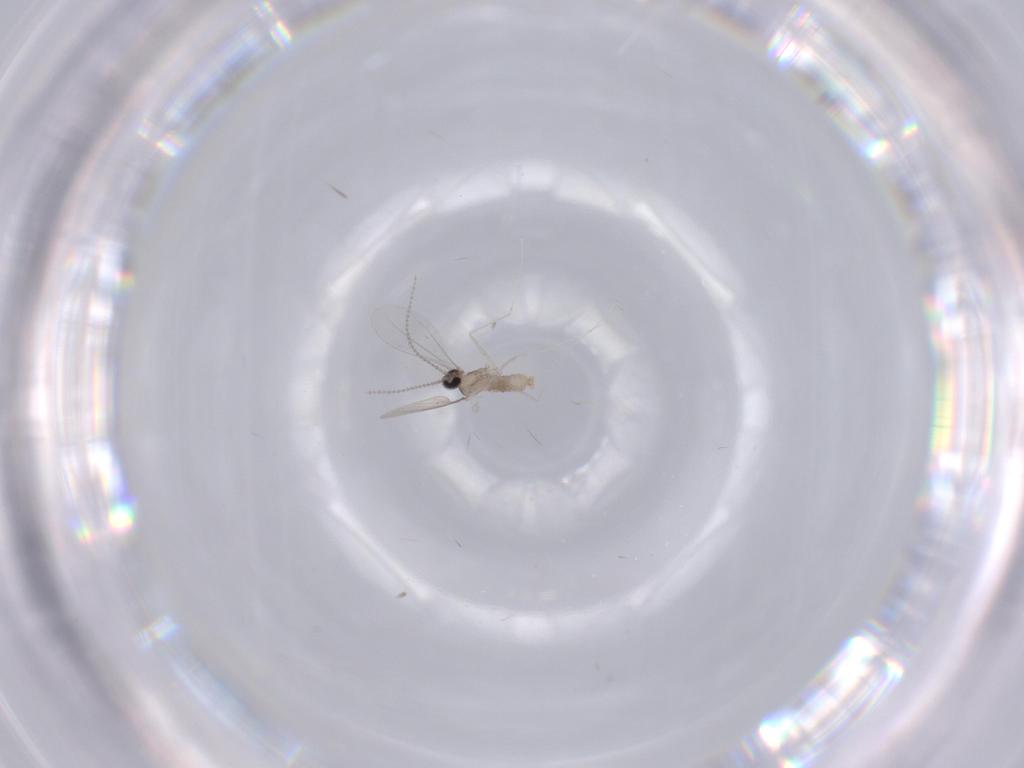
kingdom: Animalia
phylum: Arthropoda
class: Insecta
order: Diptera
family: Cecidomyiidae
